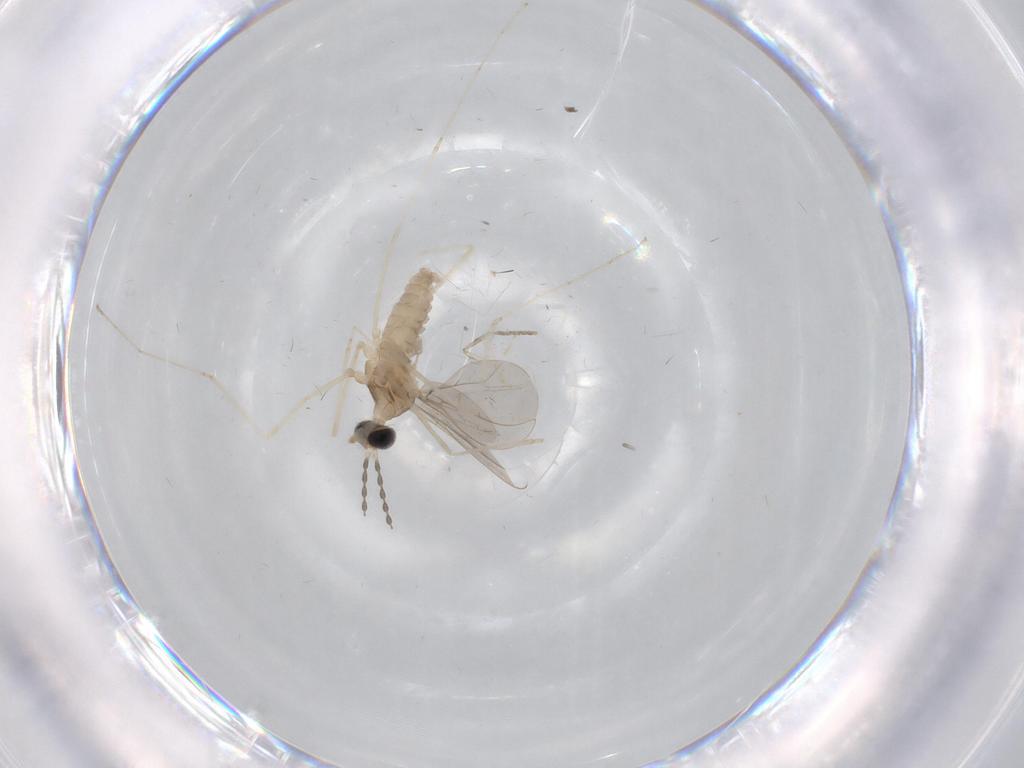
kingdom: Animalia
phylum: Arthropoda
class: Insecta
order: Diptera
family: Cecidomyiidae
